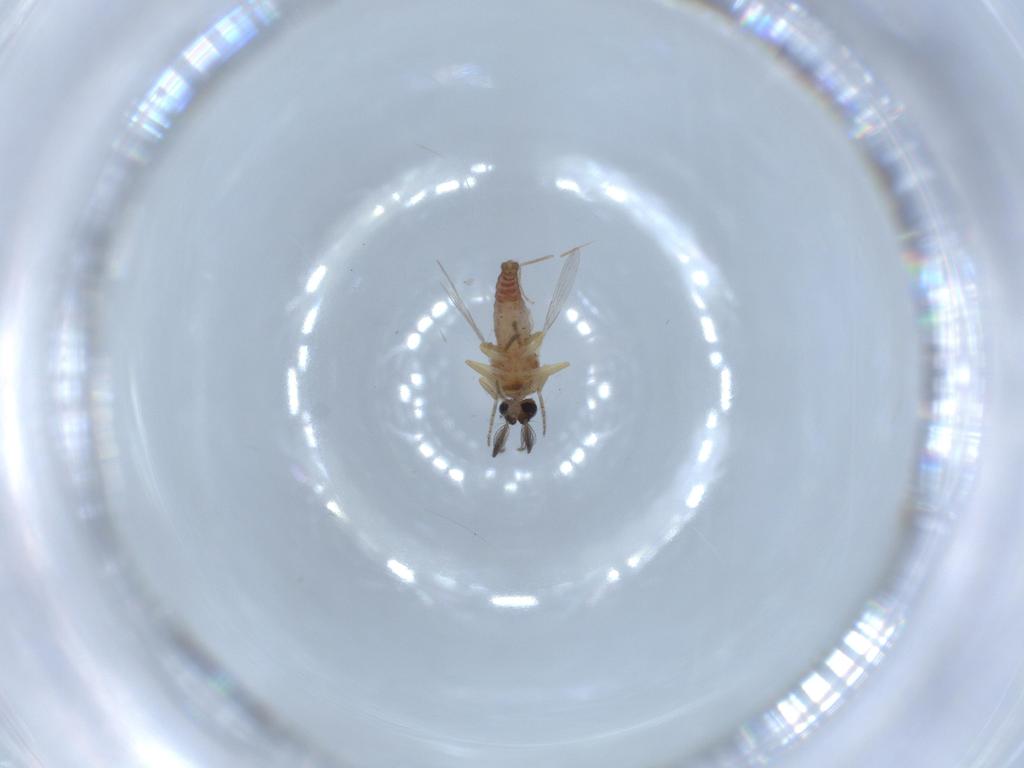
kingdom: Animalia
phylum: Arthropoda
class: Insecta
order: Diptera
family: Ceratopogonidae
